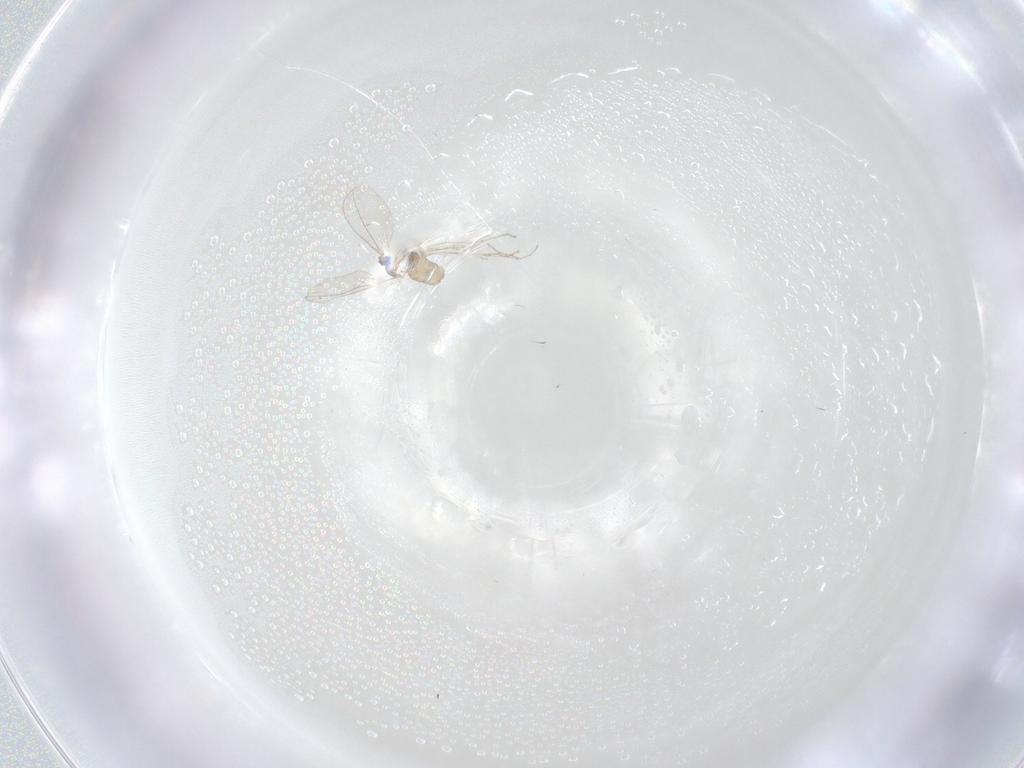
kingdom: Animalia
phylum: Arthropoda
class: Insecta
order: Diptera
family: Cecidomyiidae
